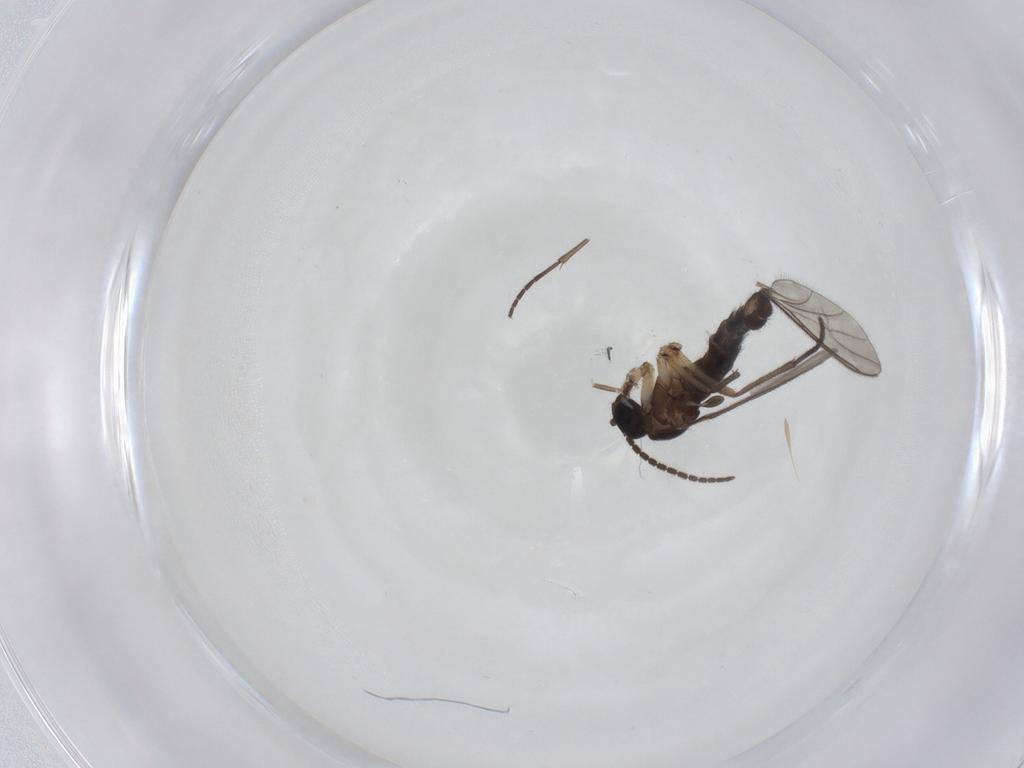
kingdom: Animalia
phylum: Arthropoda
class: Insecta
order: Diptera
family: Sciaridae
